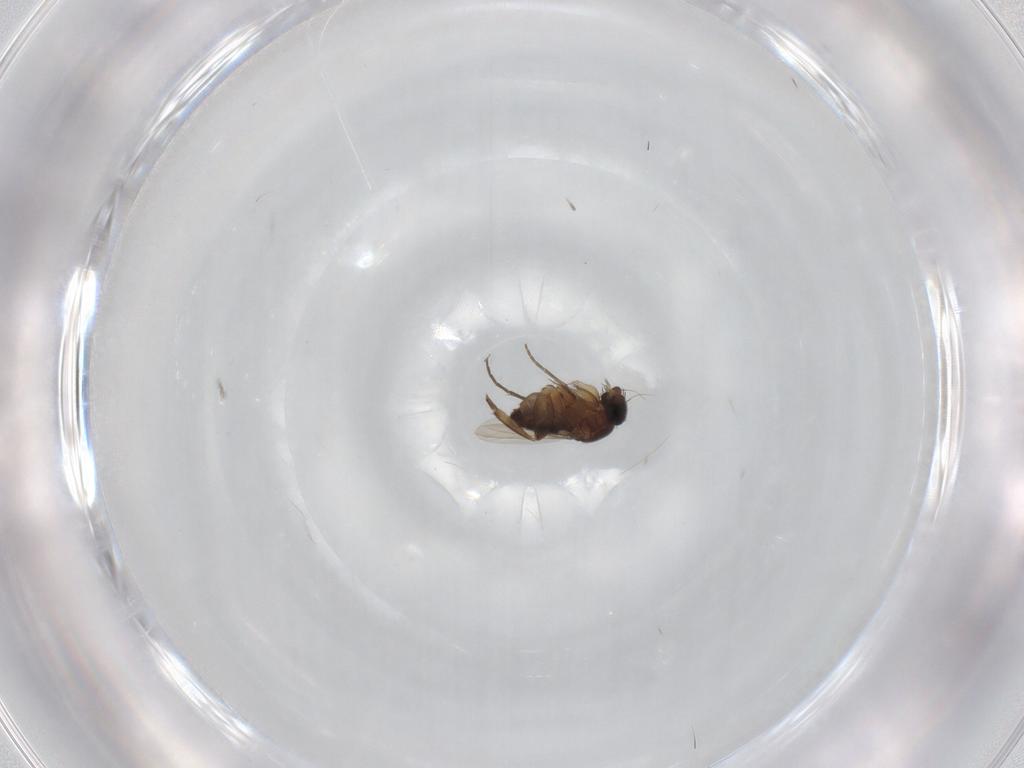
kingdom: Animalia
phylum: Arthropoda
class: Insecta
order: Diptera
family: Phoridae
